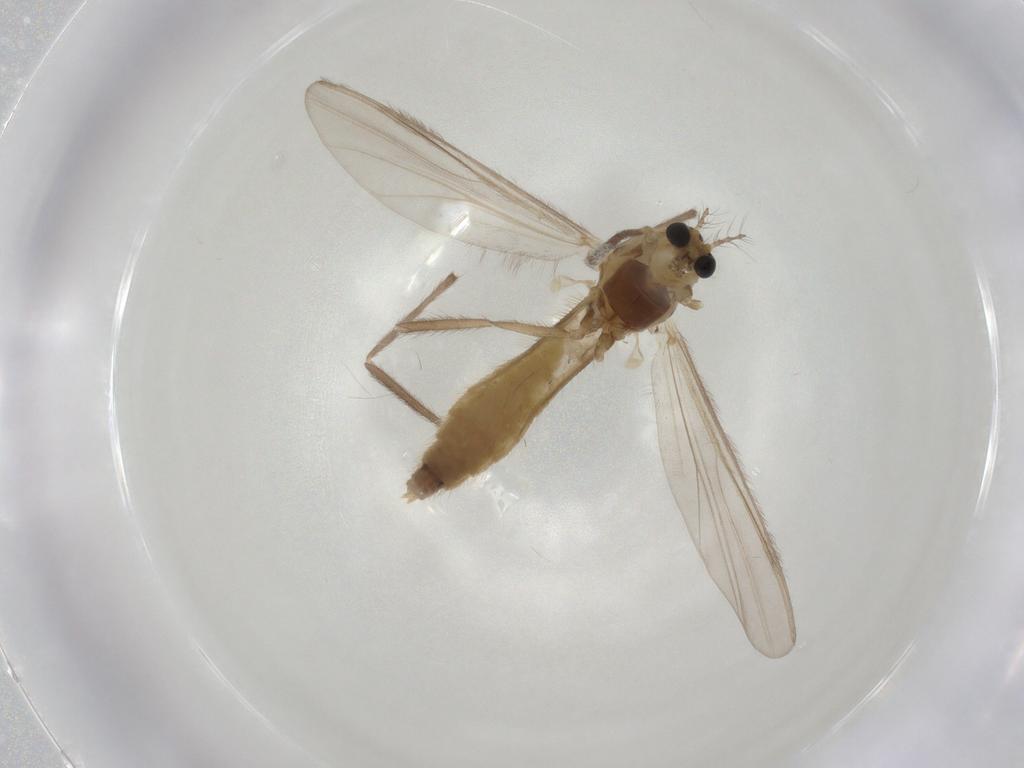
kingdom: Animalia
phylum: Arthropoda
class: Insecta
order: Diptera
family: Chironomidae
